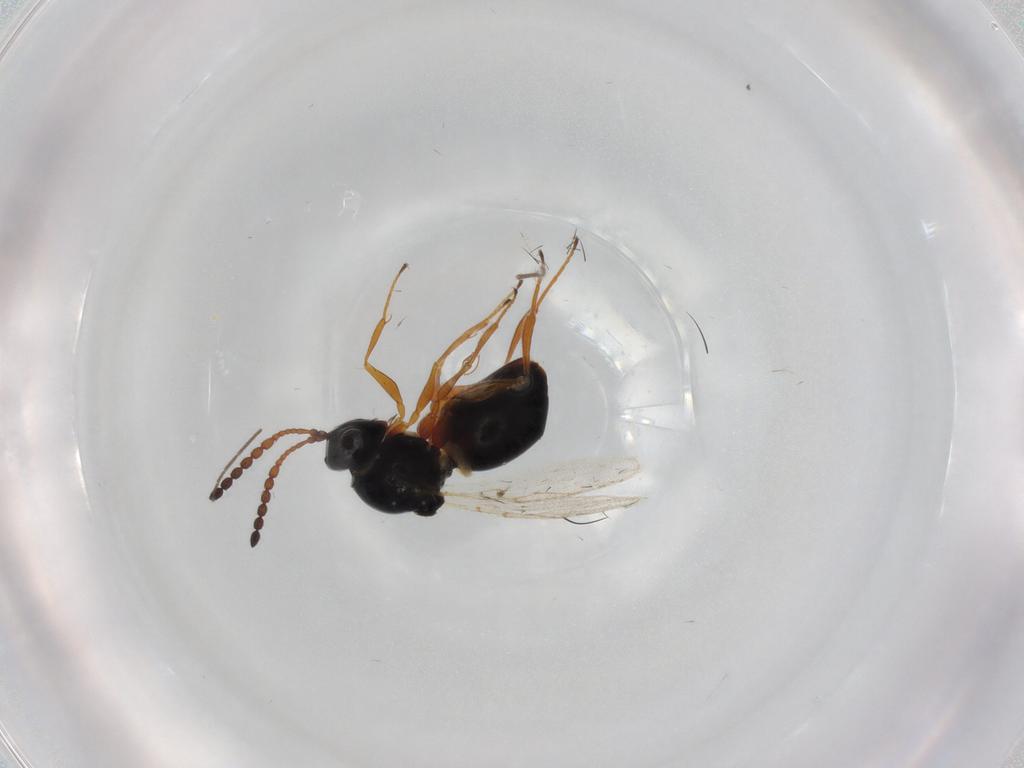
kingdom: Animalia
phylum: Arthropoda
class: Insecta
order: Hymenoptera
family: Figitidae
